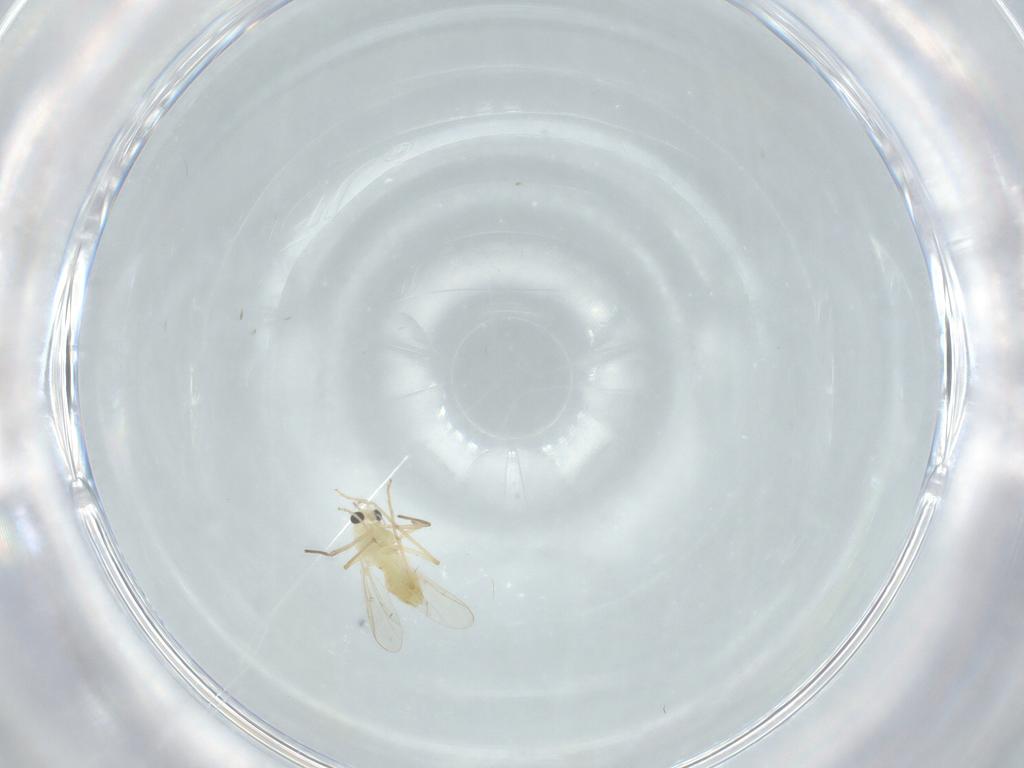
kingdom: Animalia
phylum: Arthropoda
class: Insecta
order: Diptera
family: Chironomidae
